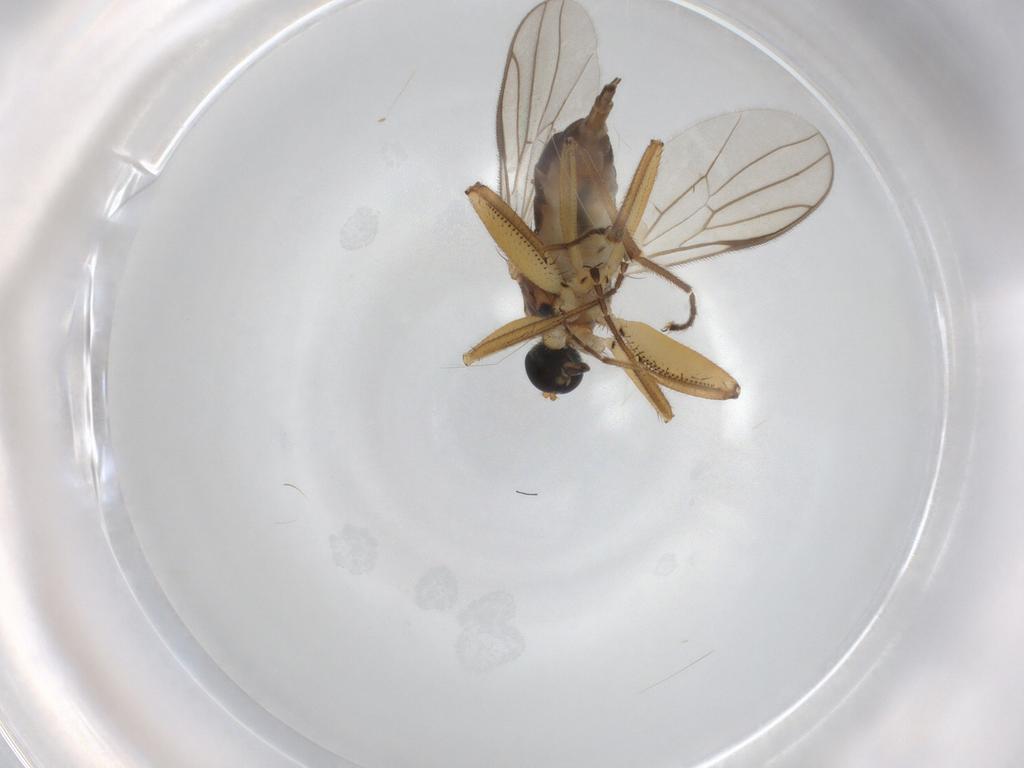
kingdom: Animalia
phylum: Arthropoda
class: Insecta
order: Diptera
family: Hybotidae
